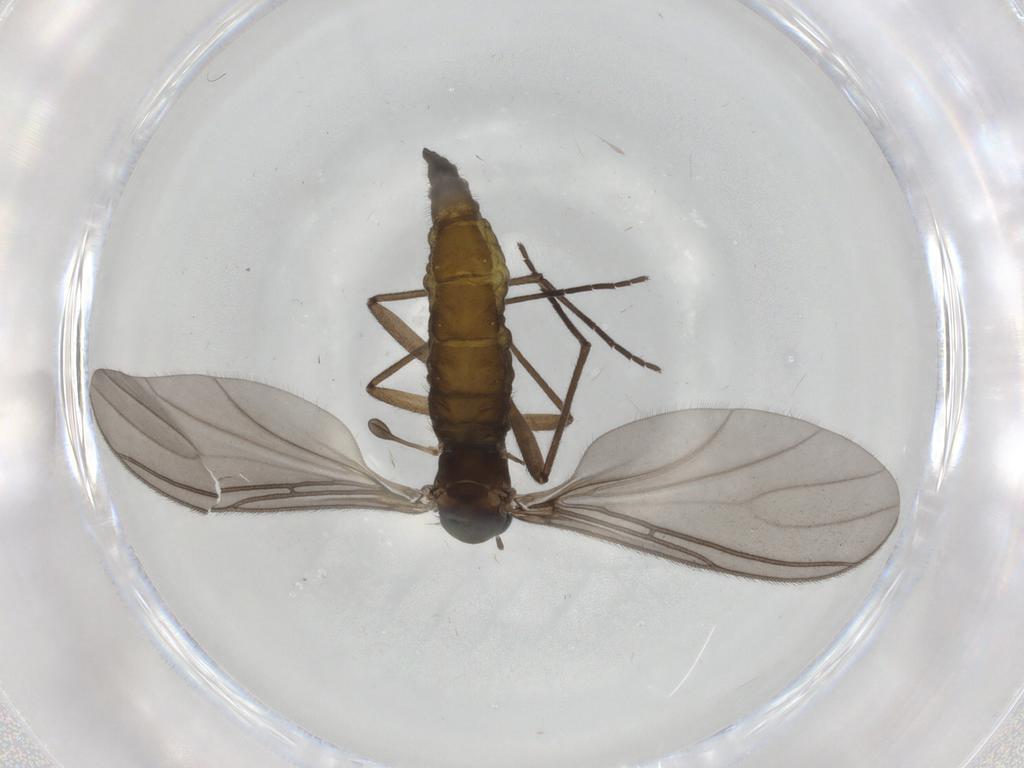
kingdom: Animalia
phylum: Arthropoda
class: Insecta
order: Diptera
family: Sciaridae
